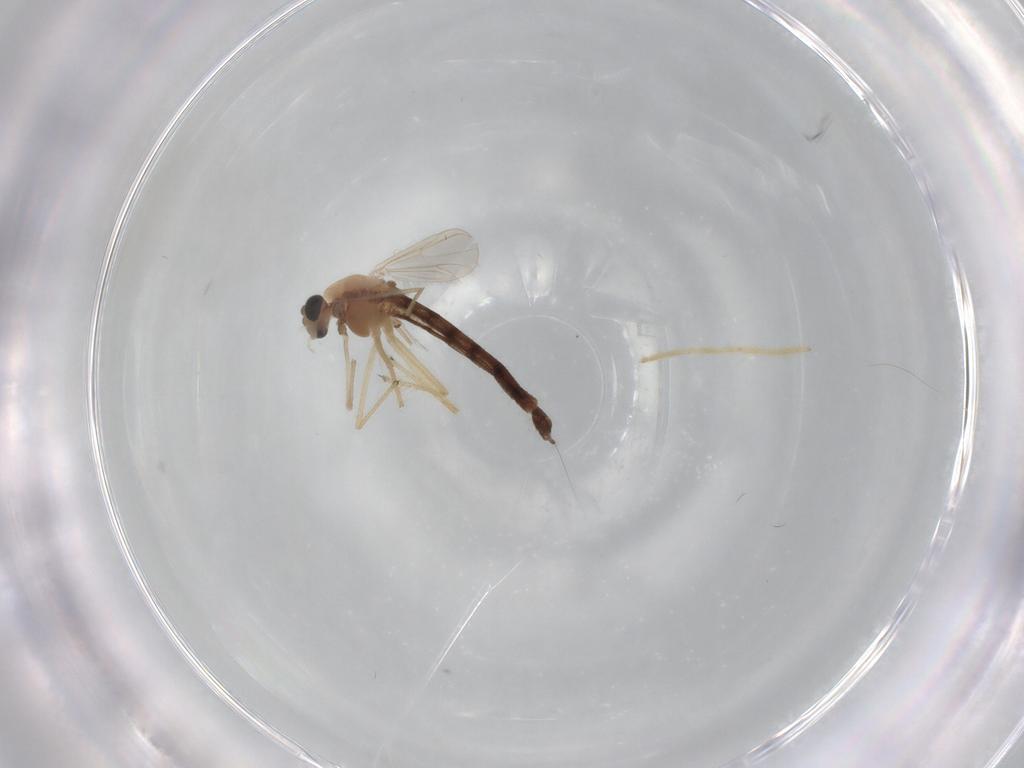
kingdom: Animalia
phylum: Arthropoda
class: Insecta
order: Diptera
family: Chironomidae
